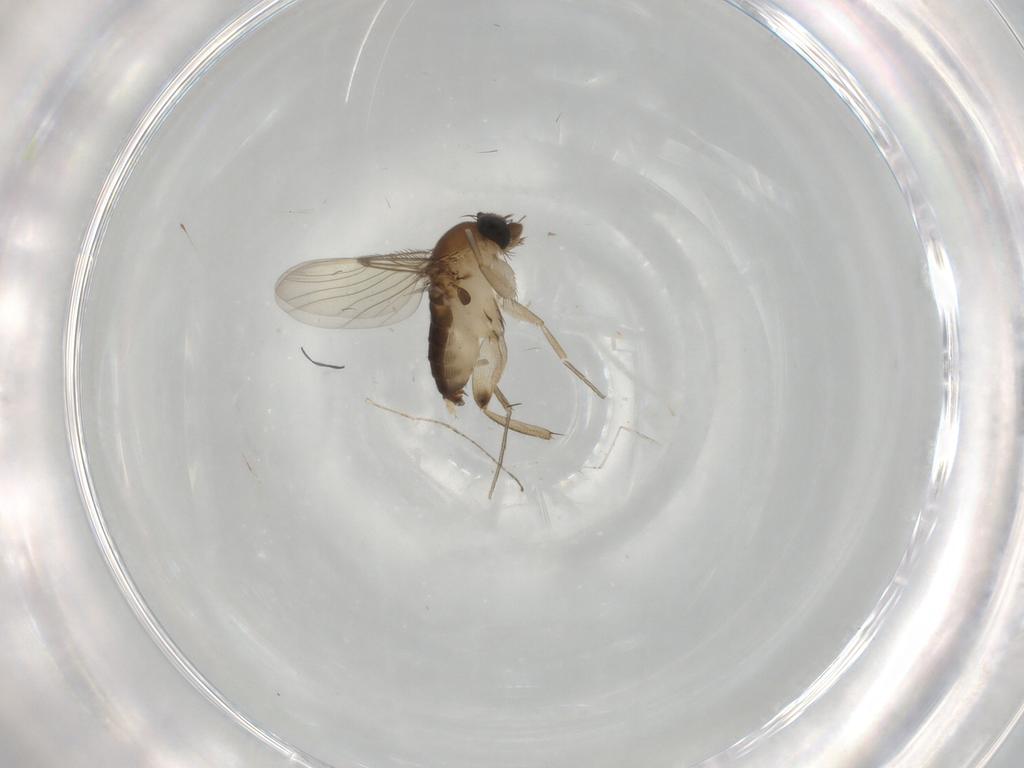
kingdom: Animalia
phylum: Arthropoda
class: Insecta
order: Diptera
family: Phoridae
